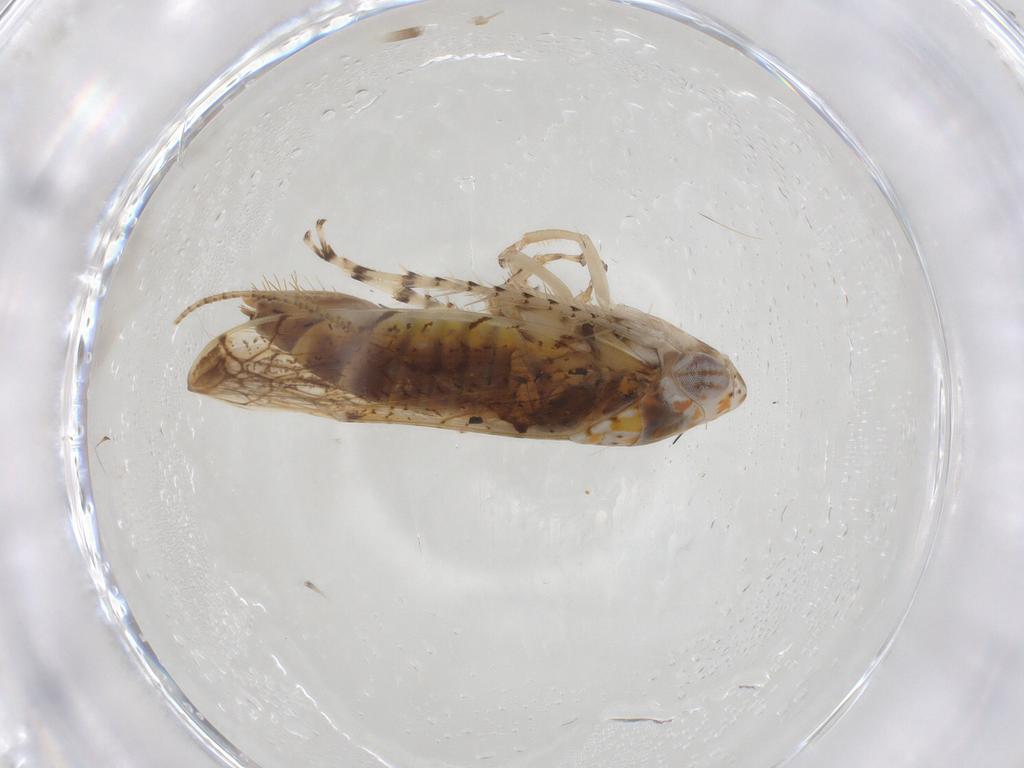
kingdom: Animalia
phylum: Arthropoda
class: Insecta
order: Hemiptera
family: Cicadellidae
